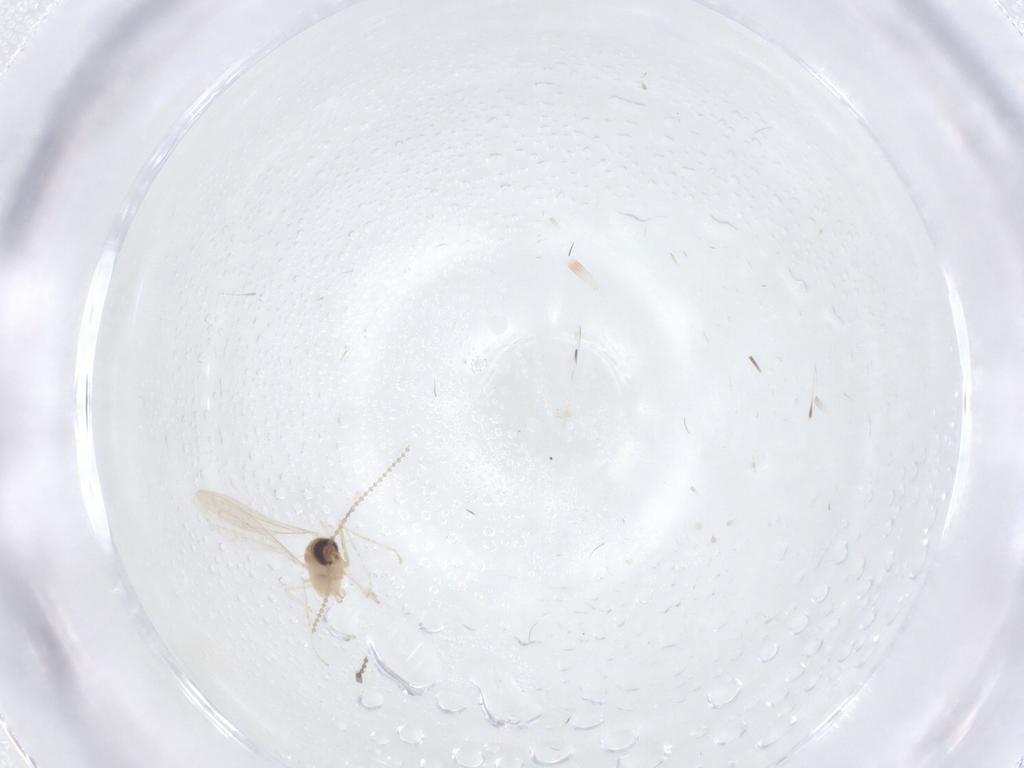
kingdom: Animalia
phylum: Arthropoda
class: Insecta
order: Diptera
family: Cecidomyiidae
